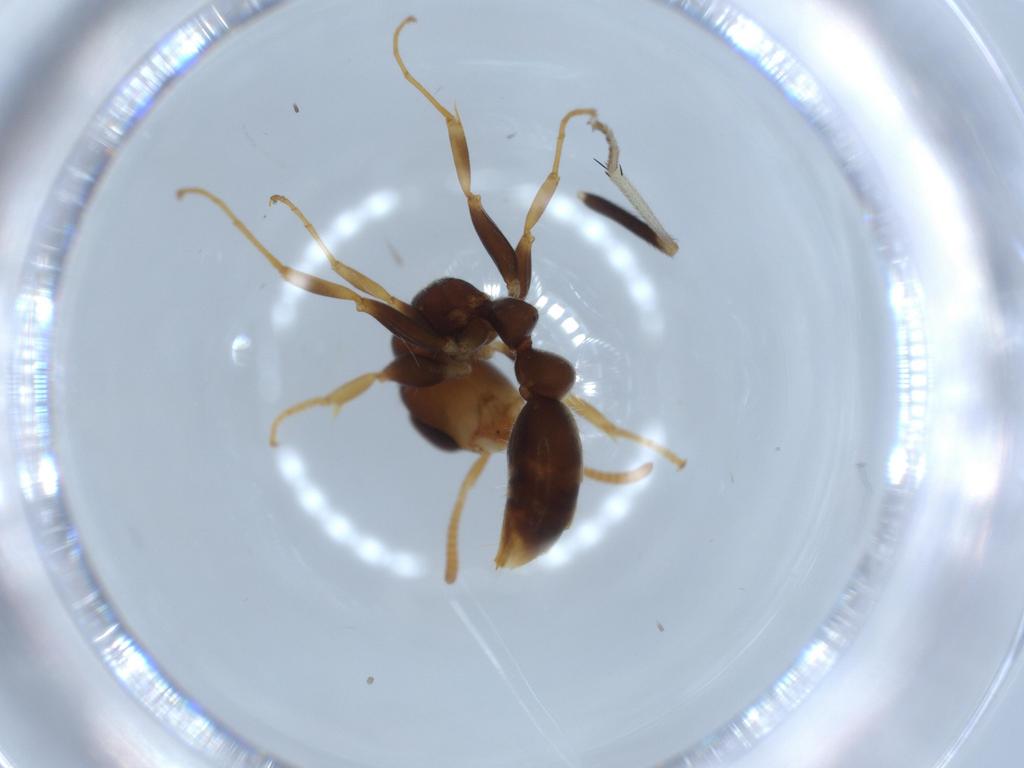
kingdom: Animalia
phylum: Arthropoda
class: Insecta
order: Hymenoptera
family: Formicidae
